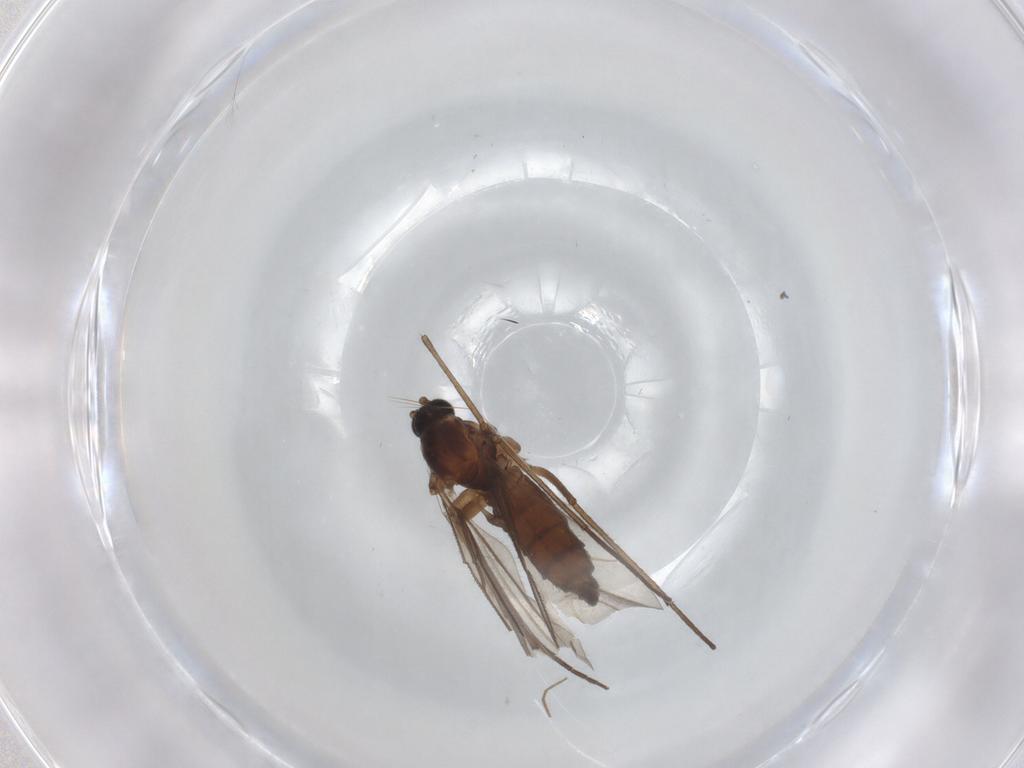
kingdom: Animalia
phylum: Arthropoda
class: Insecta
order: Diptera
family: Sciaridae
